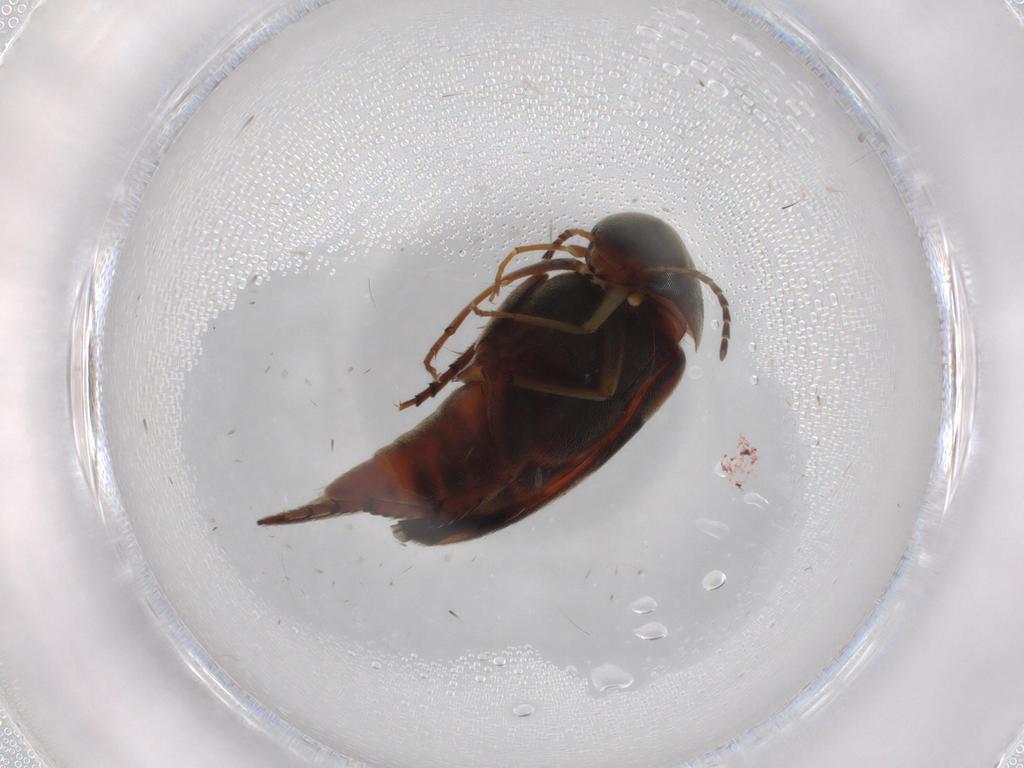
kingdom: Animalia
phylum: Arthropoda
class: Insecta
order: Coleoptera
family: Mordellidae
